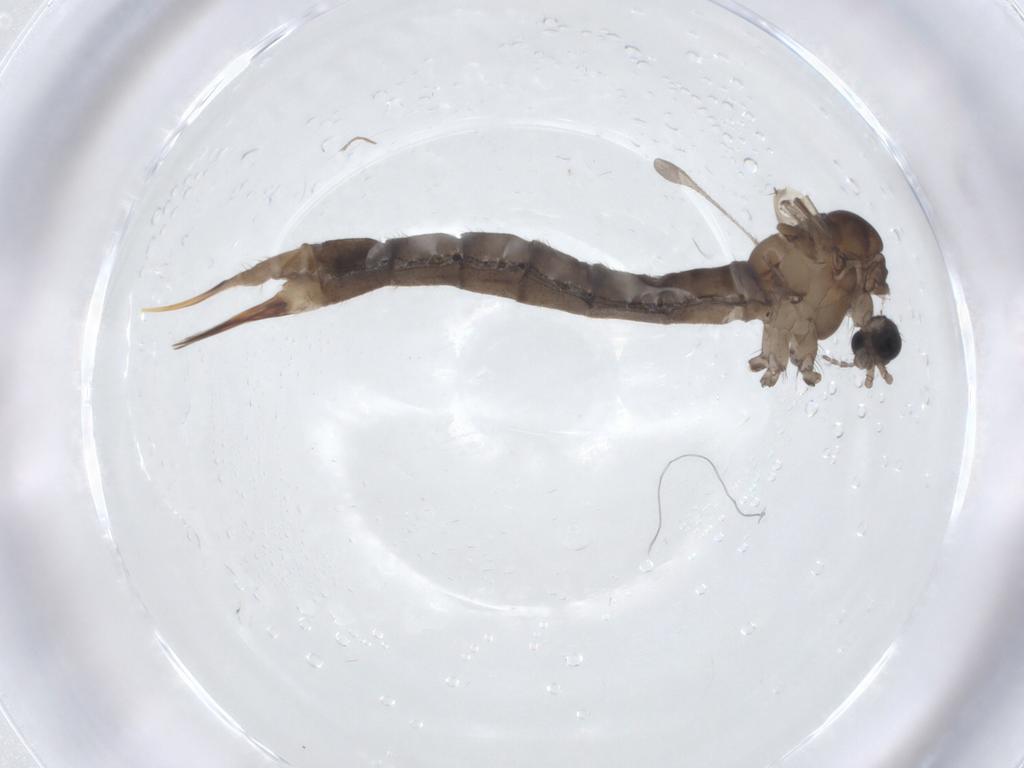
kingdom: Animalia
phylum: Arthropoda
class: Insecta
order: Diptera
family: Limoniidae
